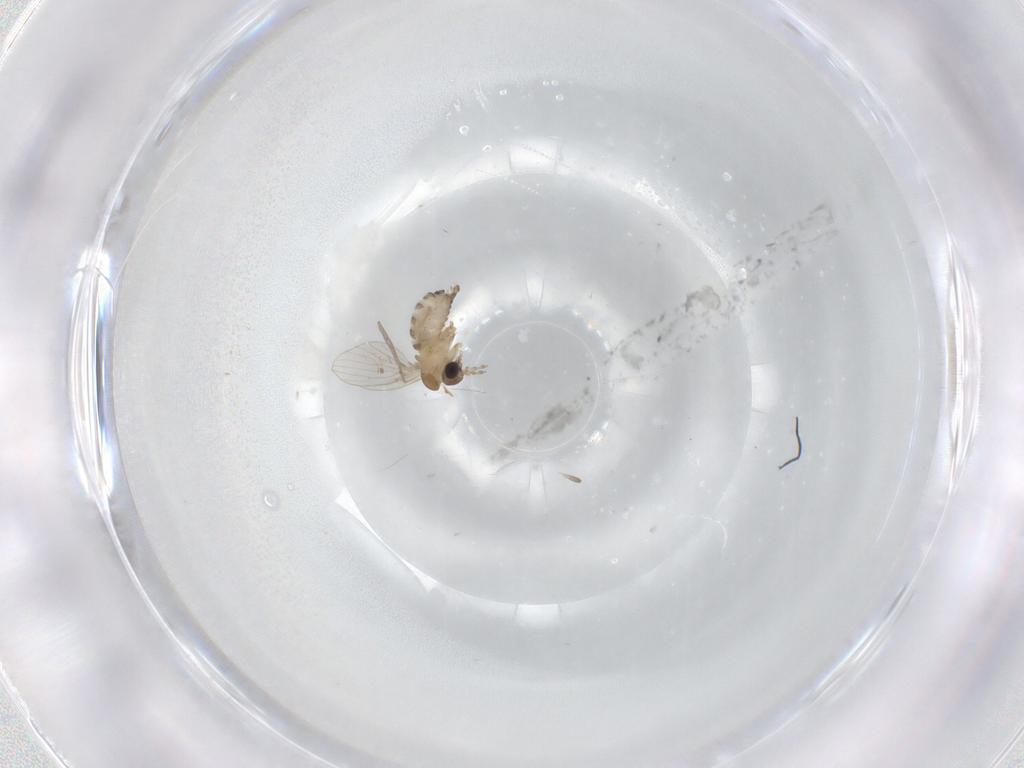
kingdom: Animalia
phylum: Arthropoda
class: Insecta
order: Diptera
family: Psychodidae
